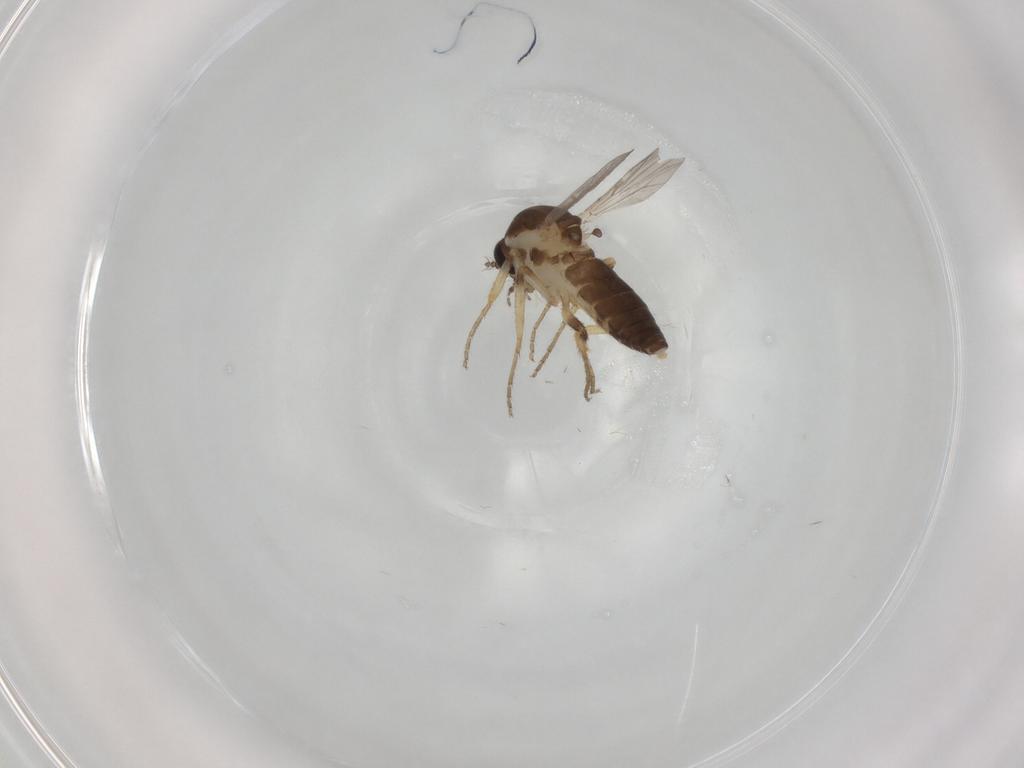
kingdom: Animalia
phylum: Arthropoda
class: Insecta
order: Diptera
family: Ceratopogonidae
